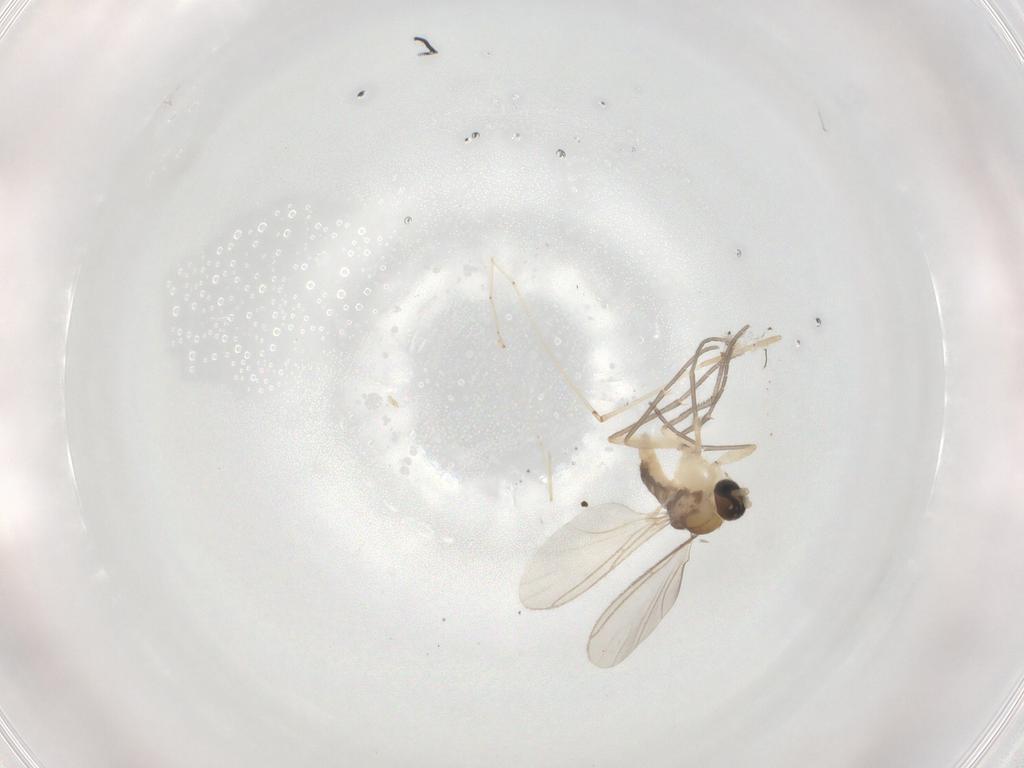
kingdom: Animalia
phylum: Arthropoda
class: Insecta
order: Diptera
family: Sciaridae
